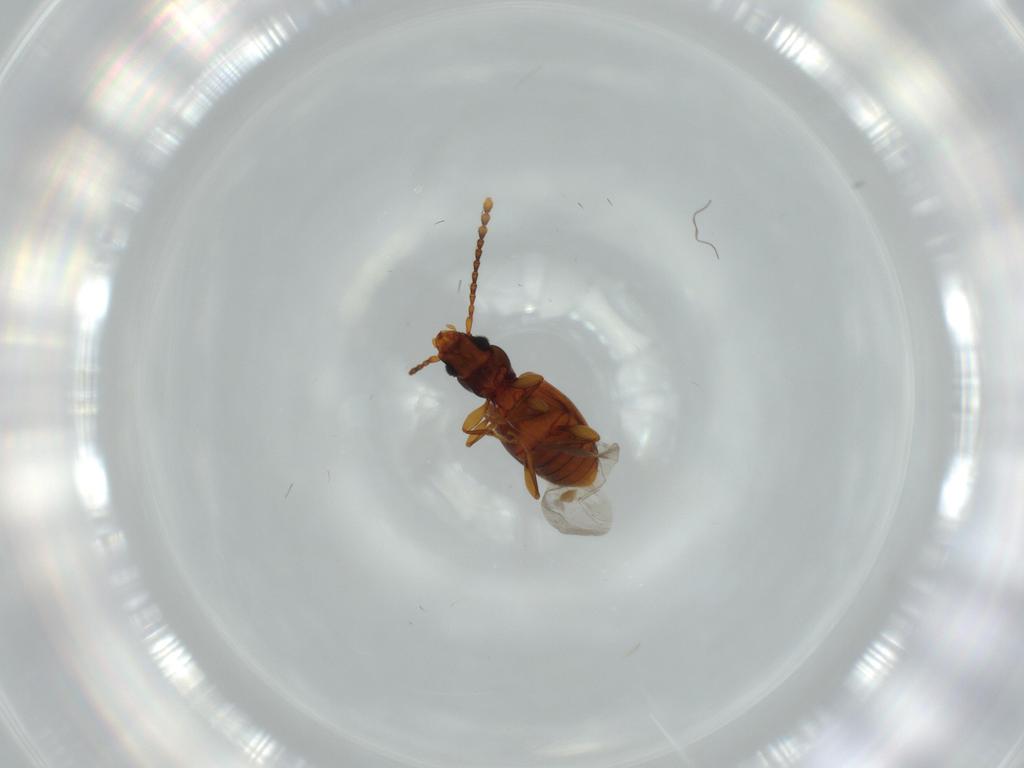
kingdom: Animalia
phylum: Arthropoda
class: Insecta
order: Coleoptera
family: Laemophloeidae
